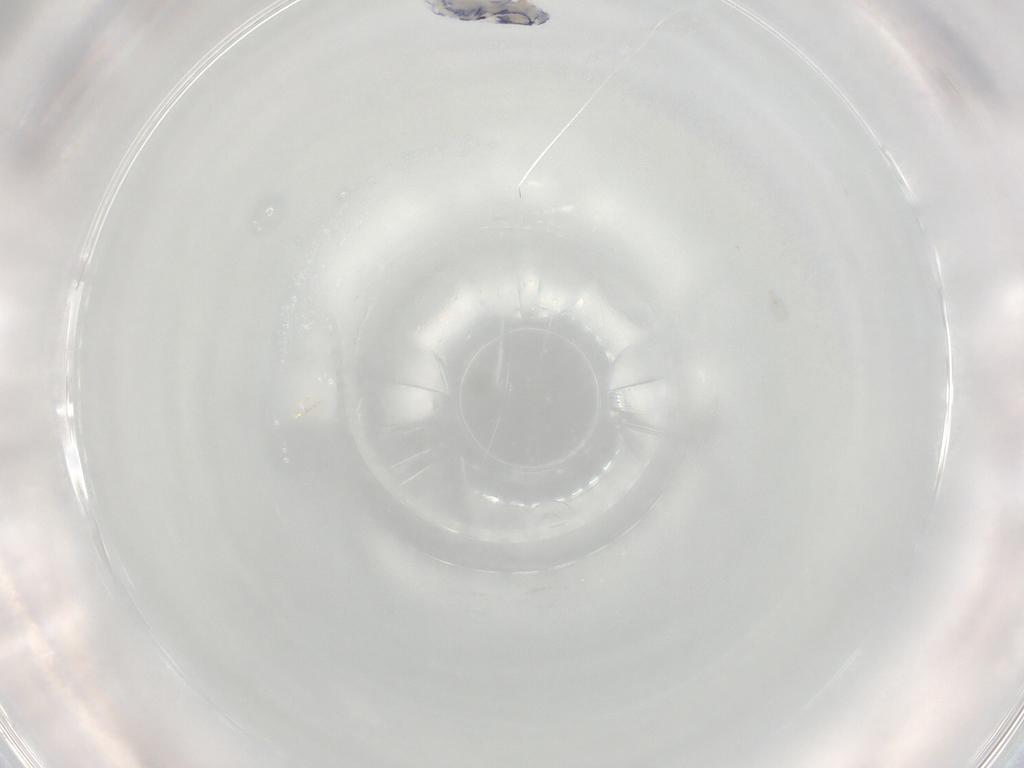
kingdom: Animalia
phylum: Arthropoda
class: Collembola
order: Entomobryomorpha
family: Entomobryidae
